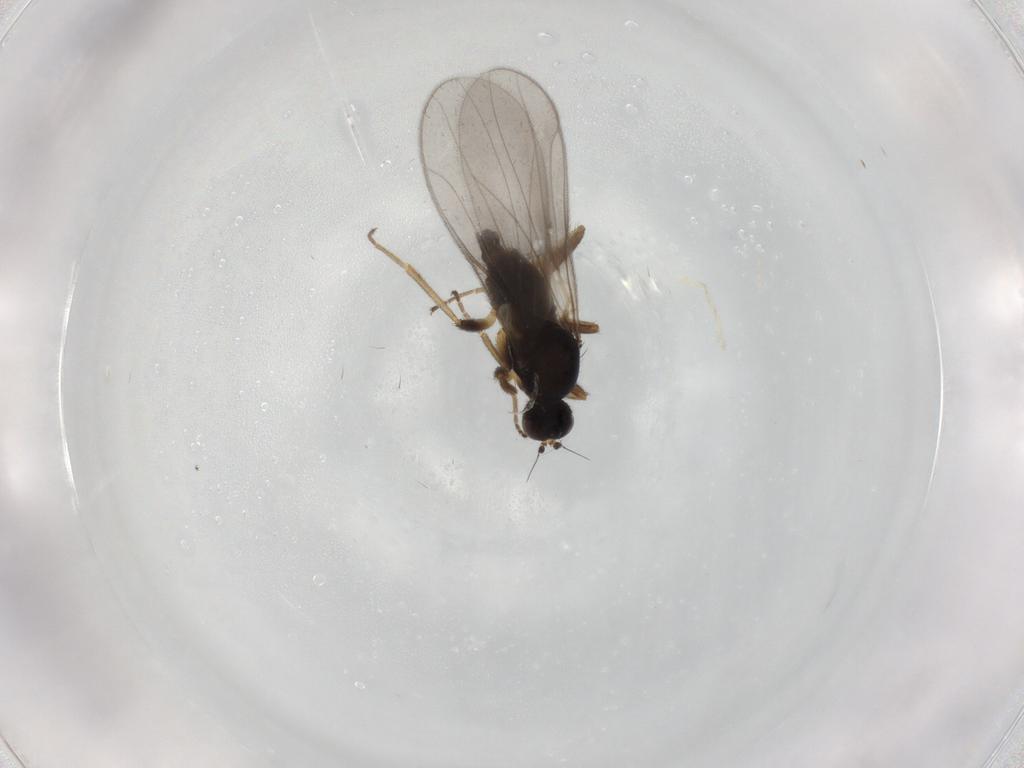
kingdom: Animalia
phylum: Arthropoda
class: Insecta
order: Diptera
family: Hybotidae
